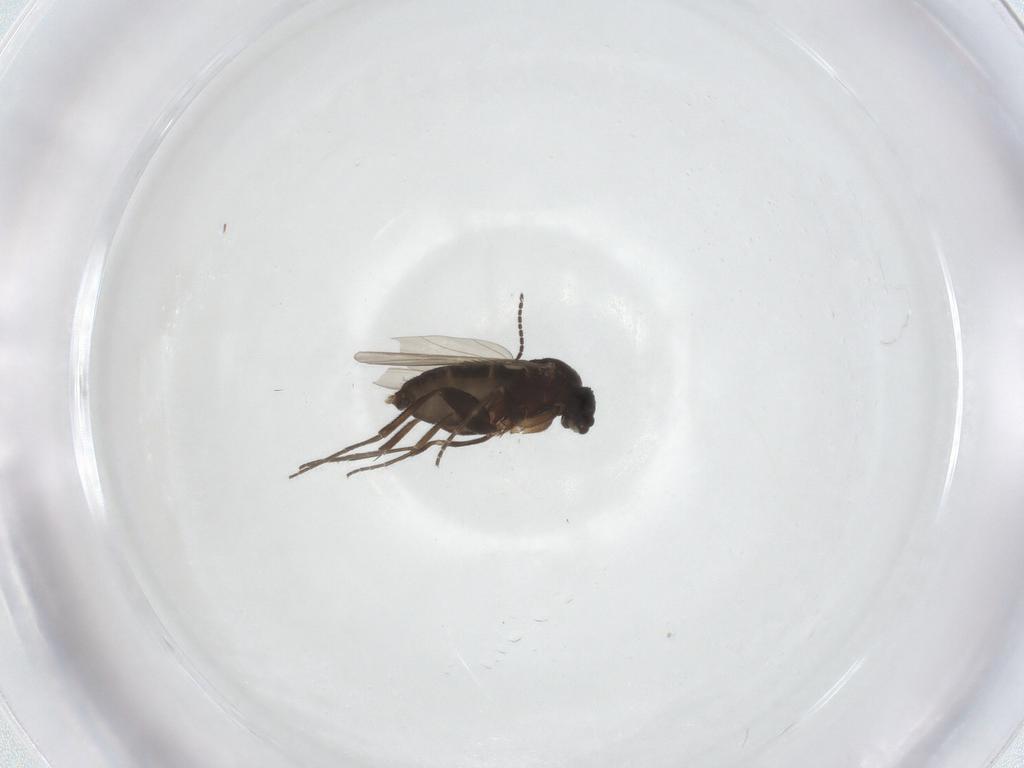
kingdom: Animalia
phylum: Arthropoda
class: Insecta
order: Diptera
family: Phoridae
